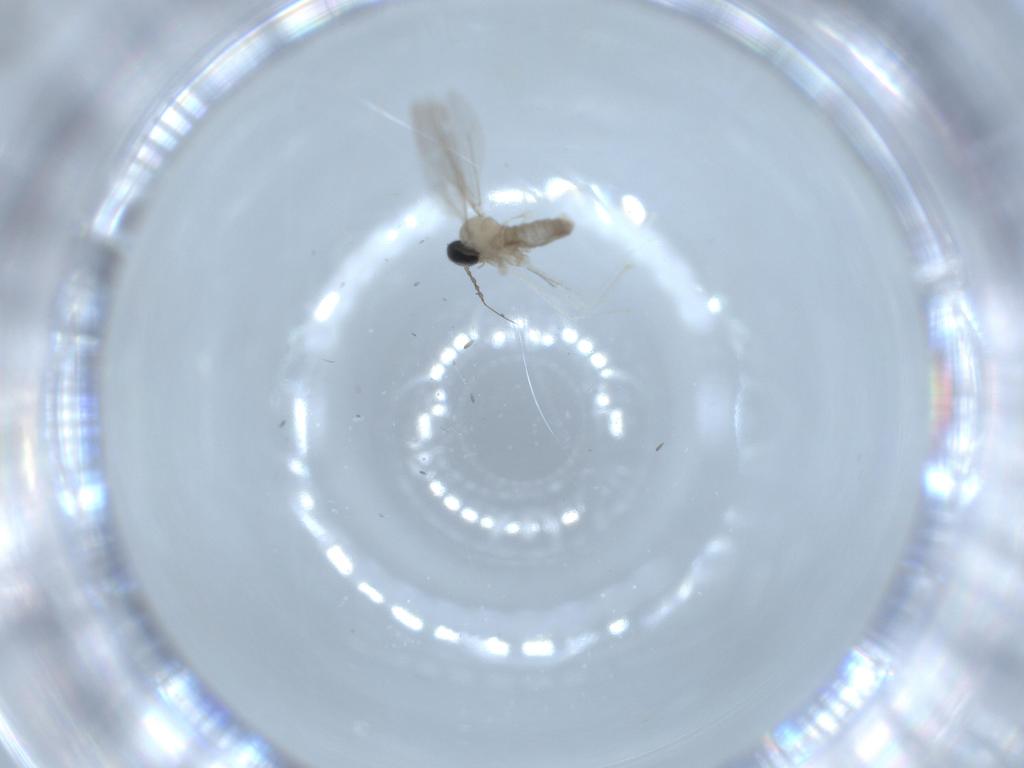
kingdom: Animalia
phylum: Arthropoda
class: Insecta
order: Diptera
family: Cecidomyiidae
